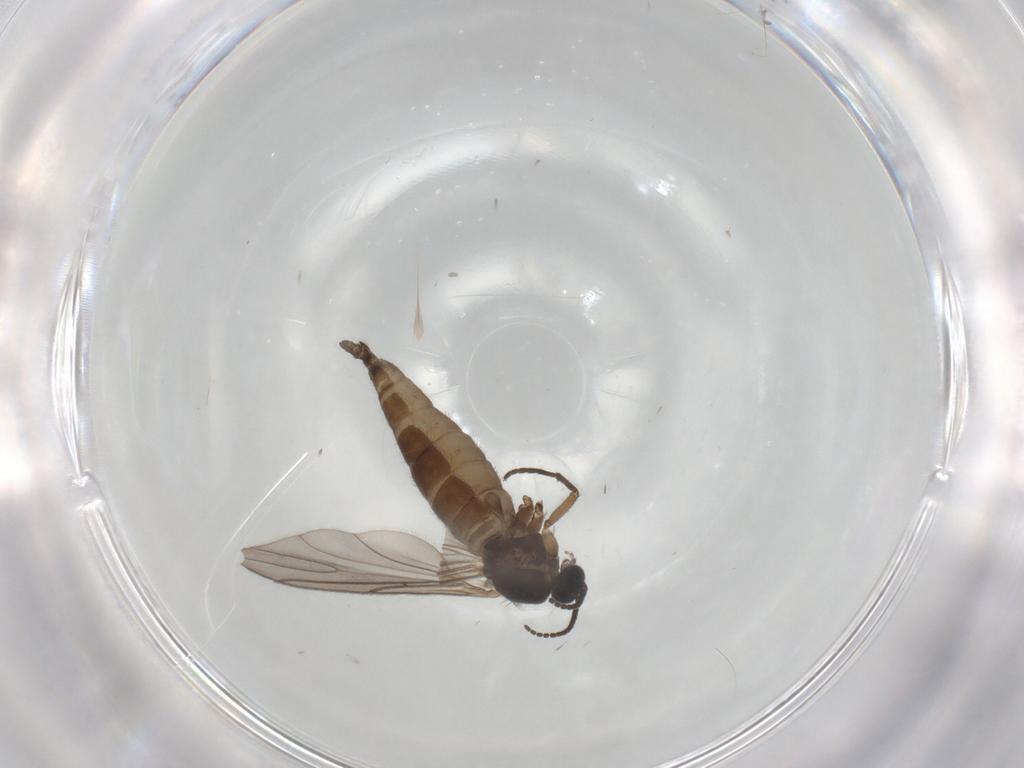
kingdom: Animalia
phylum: Arthropoda
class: Insecta
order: Diptera
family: Sciaridae
